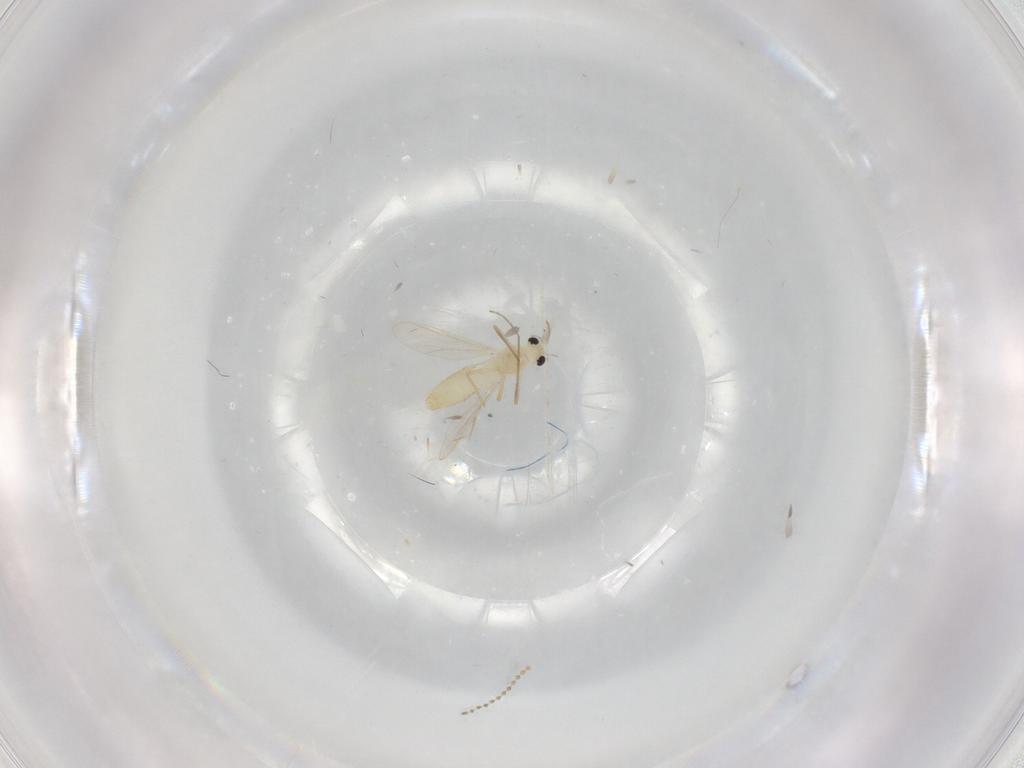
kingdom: Animalia
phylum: Arthropoda
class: Insecta
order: Diptera
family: Chironomidae
